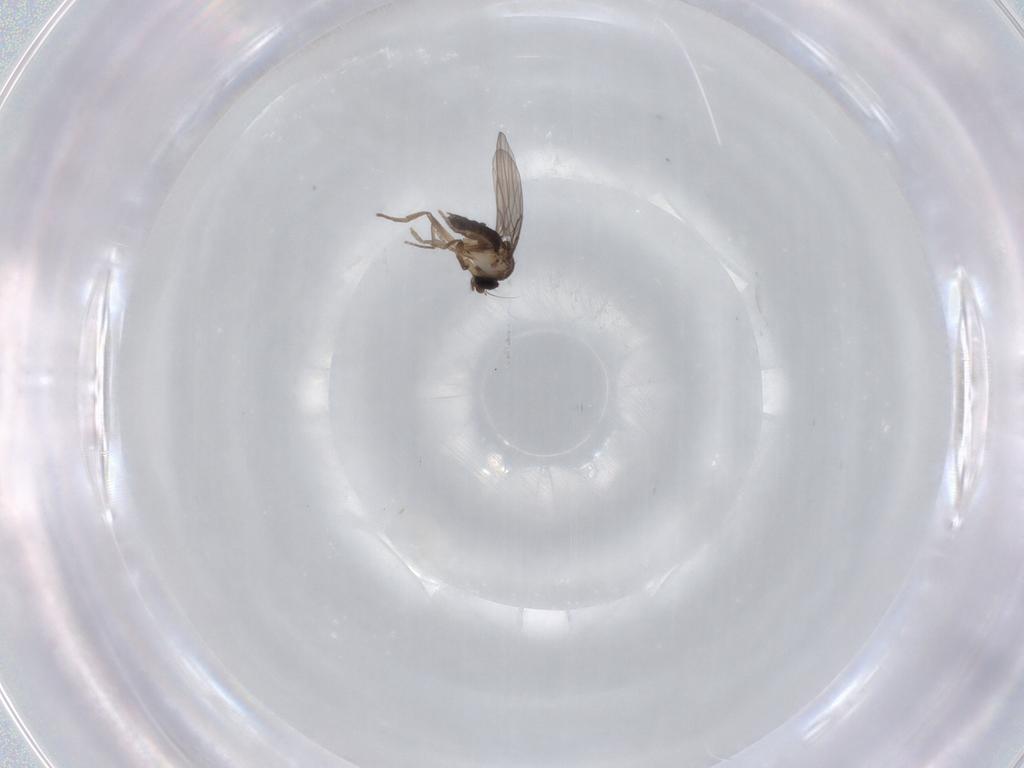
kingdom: Animalia
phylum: Arthropoda
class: Insecta
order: Diptera
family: Phoridae
